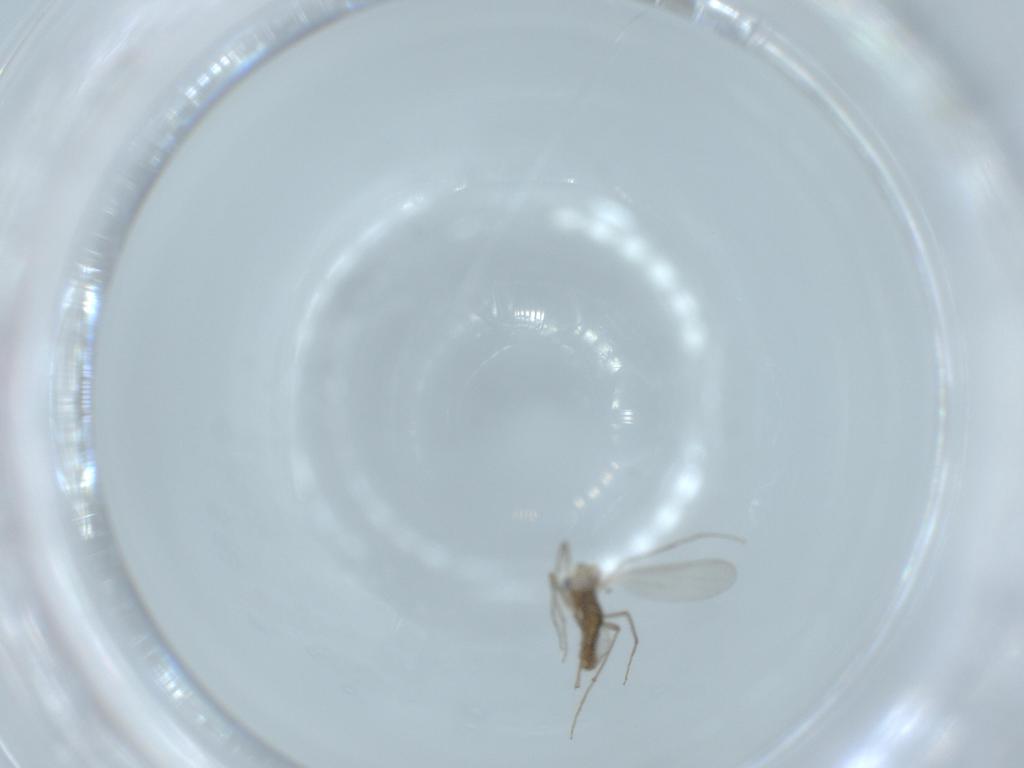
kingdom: Animalia
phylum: Arthropoda
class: Insecta
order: Diptera
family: Chironomidae
